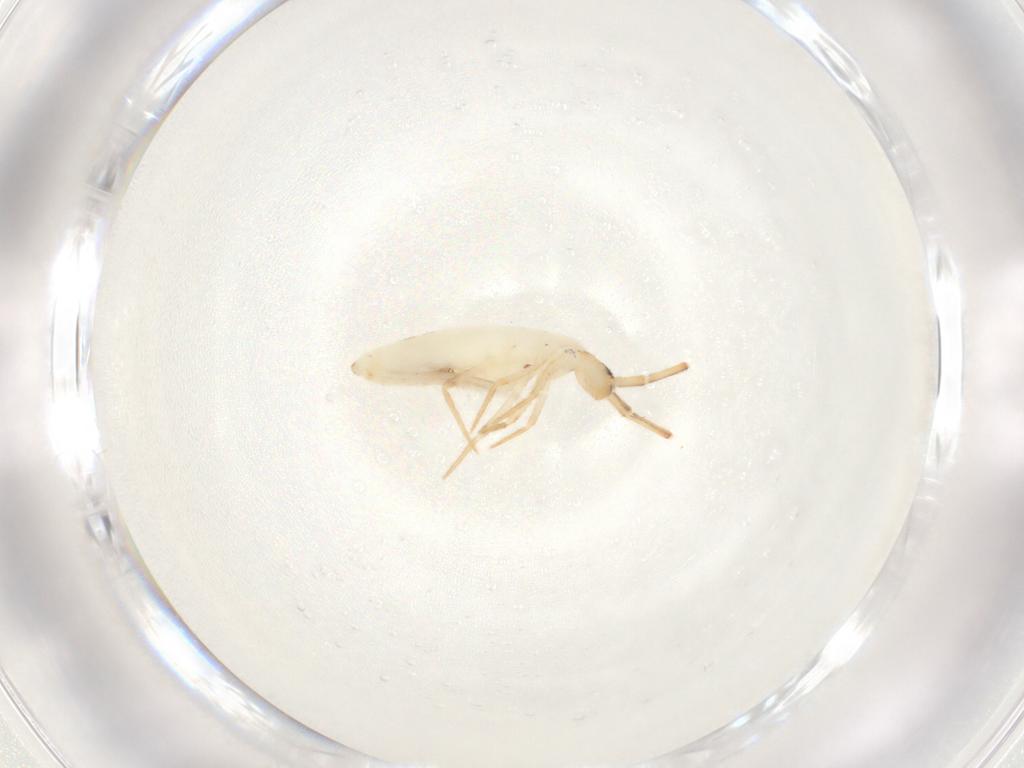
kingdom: Animalia
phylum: Arthropoda
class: Collembola
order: Entomobryomorpha
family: Entomobryidae
